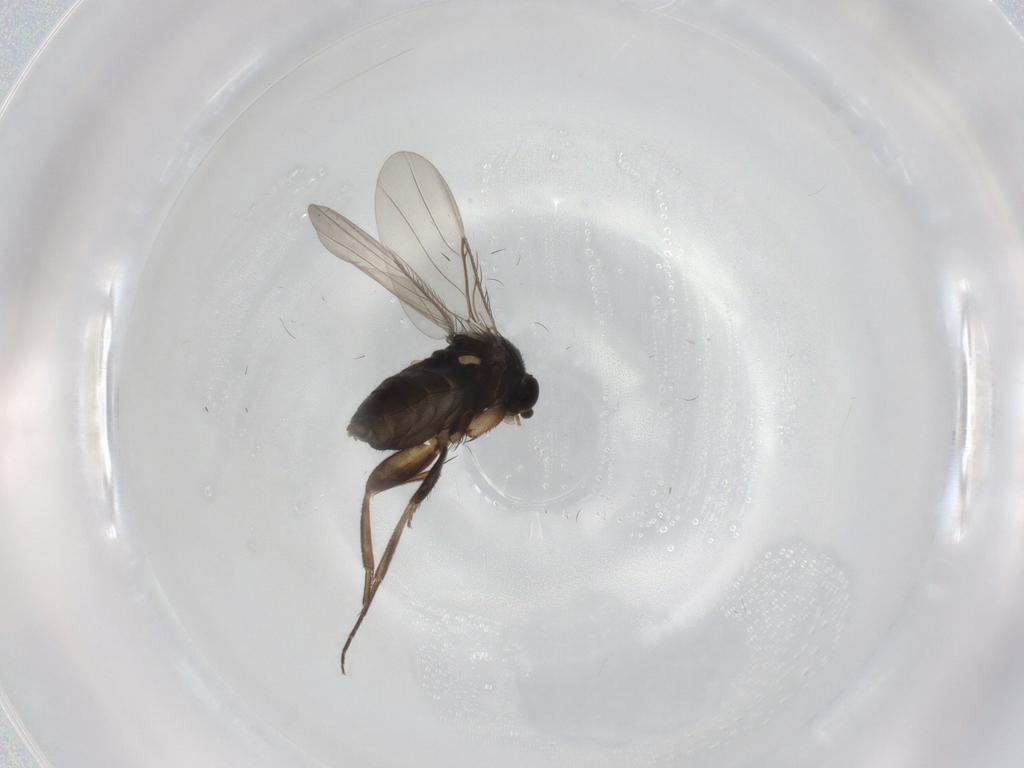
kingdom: Animalia
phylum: Arthropoda
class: Insecta
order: Diptera
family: Phoridae
